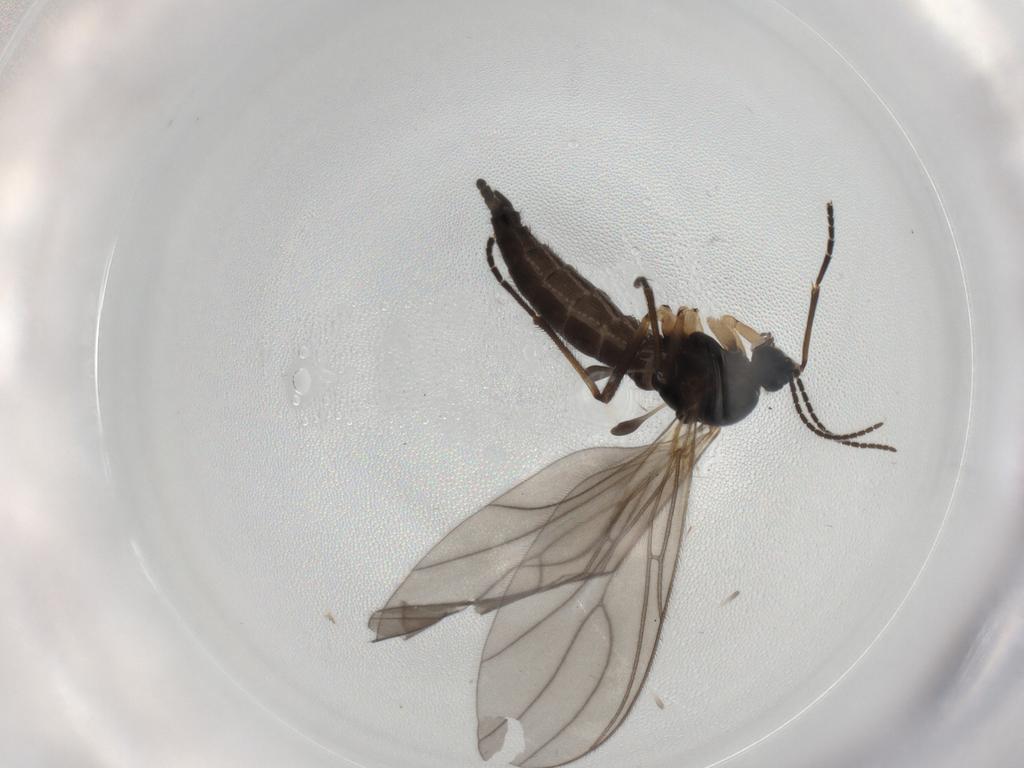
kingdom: Animalia
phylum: Arthropoda
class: Insecta
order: Diptera
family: Sciaridae
